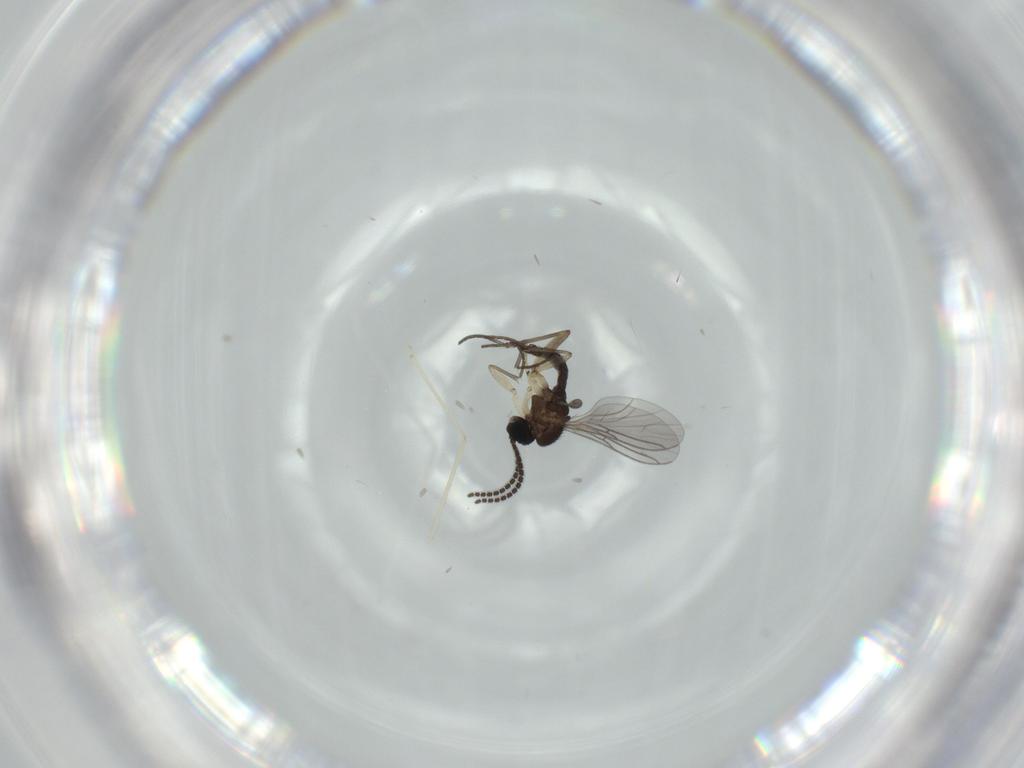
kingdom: Animalia
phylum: Arthropoda
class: Insecta
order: Diptera
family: Sciaridae
